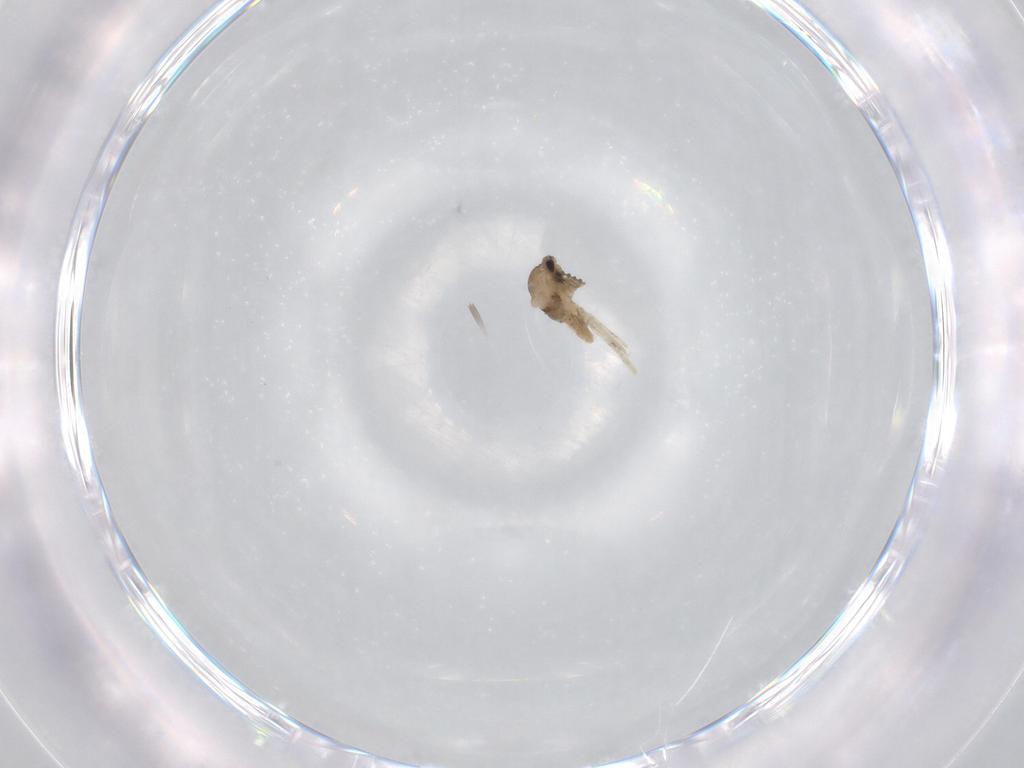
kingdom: Animalia
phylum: Arthropoda
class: Insecta
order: Diptera
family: Cecidomyiidae
